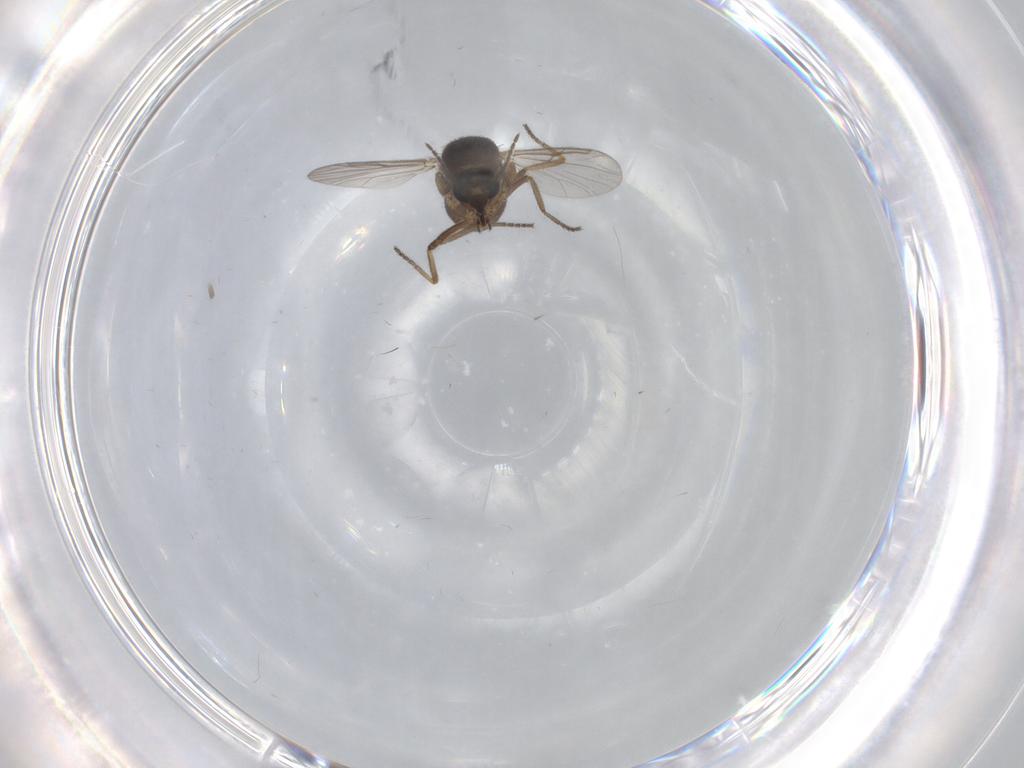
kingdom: Animalia
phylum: Arthropoda
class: Insecta
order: Diptera
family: Ceratopogonidae
